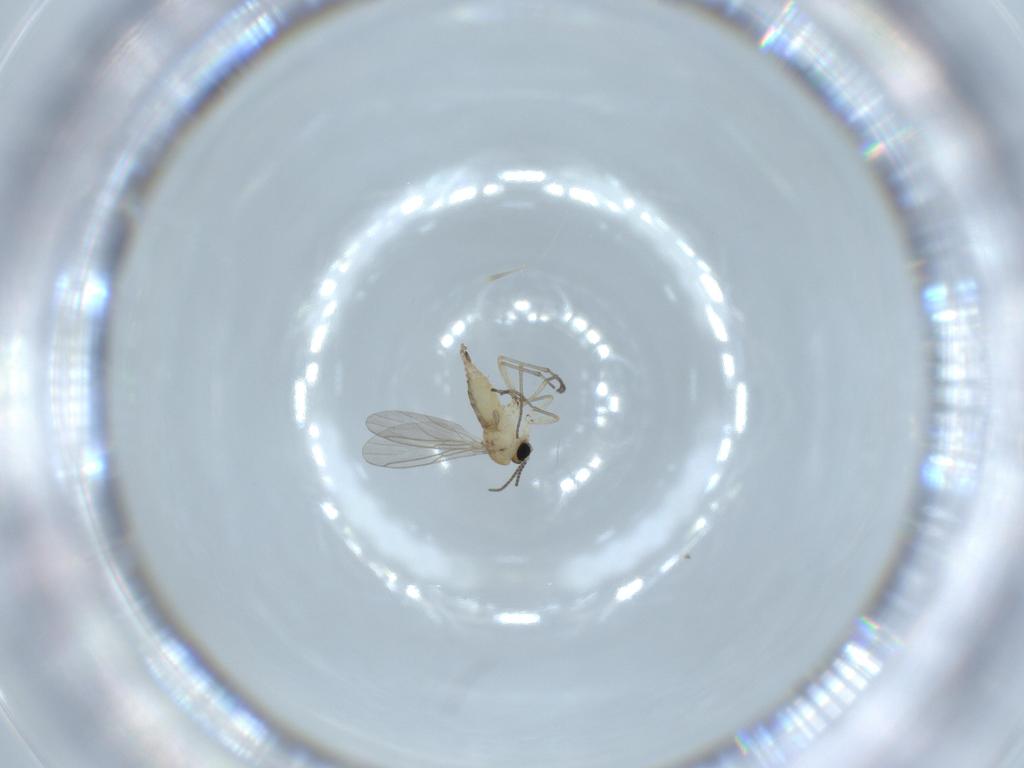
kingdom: Animalia
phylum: Arthropoda
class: Insecta
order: Diptera
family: Sciaridae
